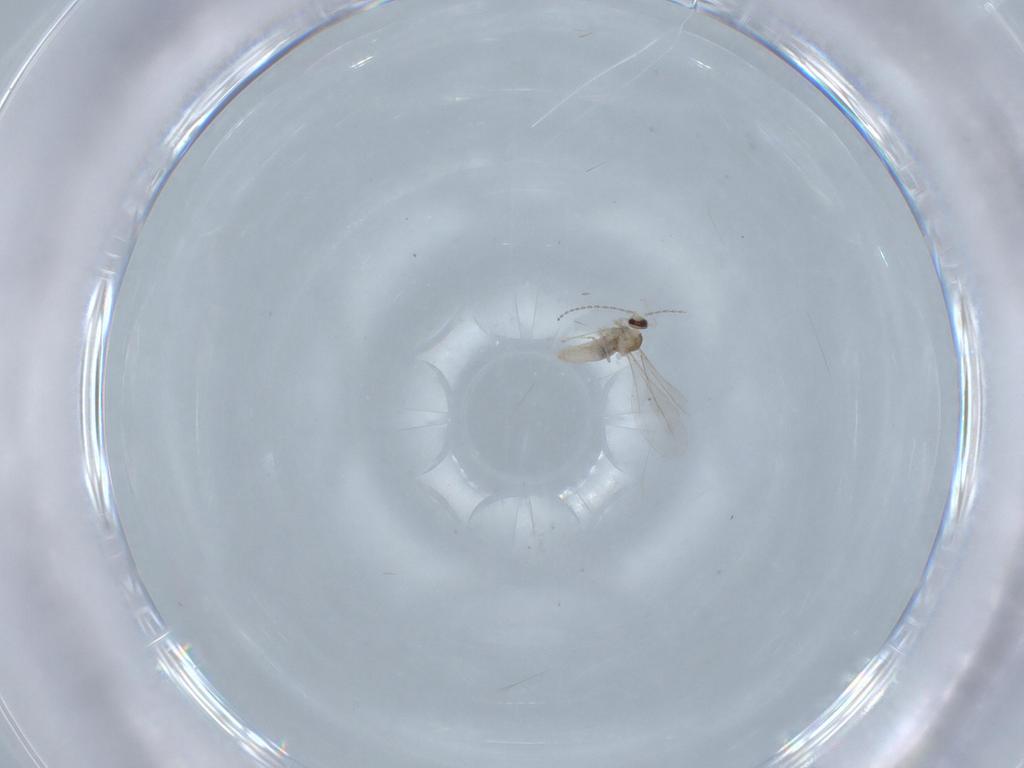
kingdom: Animalia
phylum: Arthropoda
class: Insecta
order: Diptera
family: Cecidomyiidae
